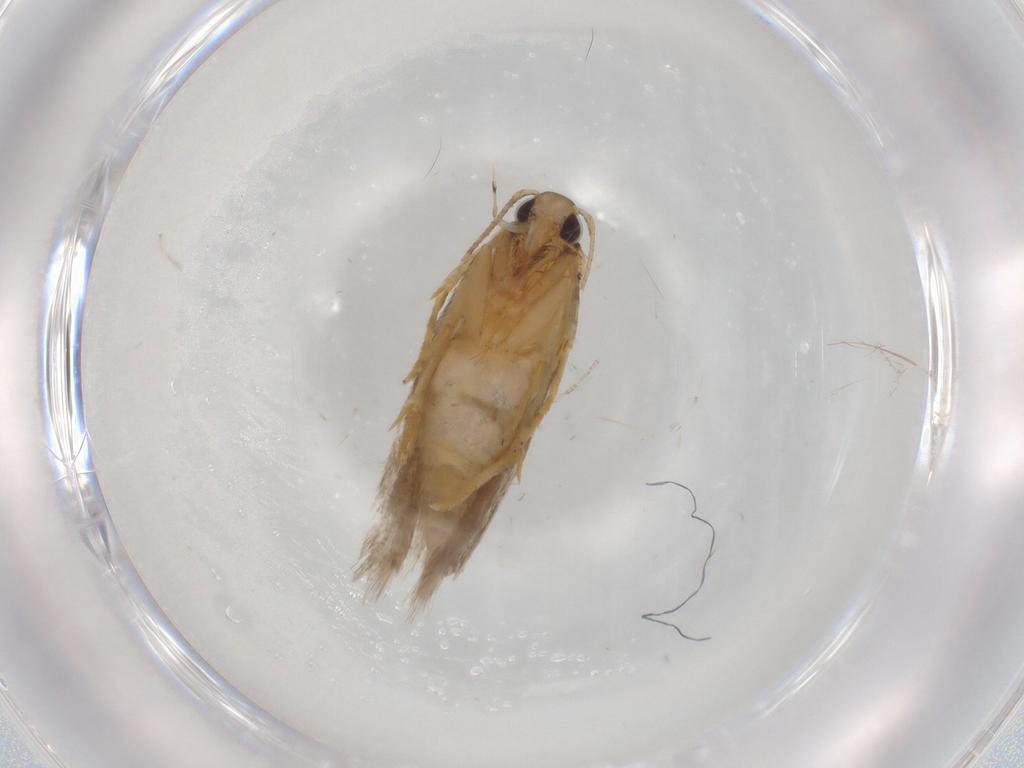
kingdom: Animalia
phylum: Arthropoda
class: Insecta
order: Lepidoptera
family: Autostichidae
